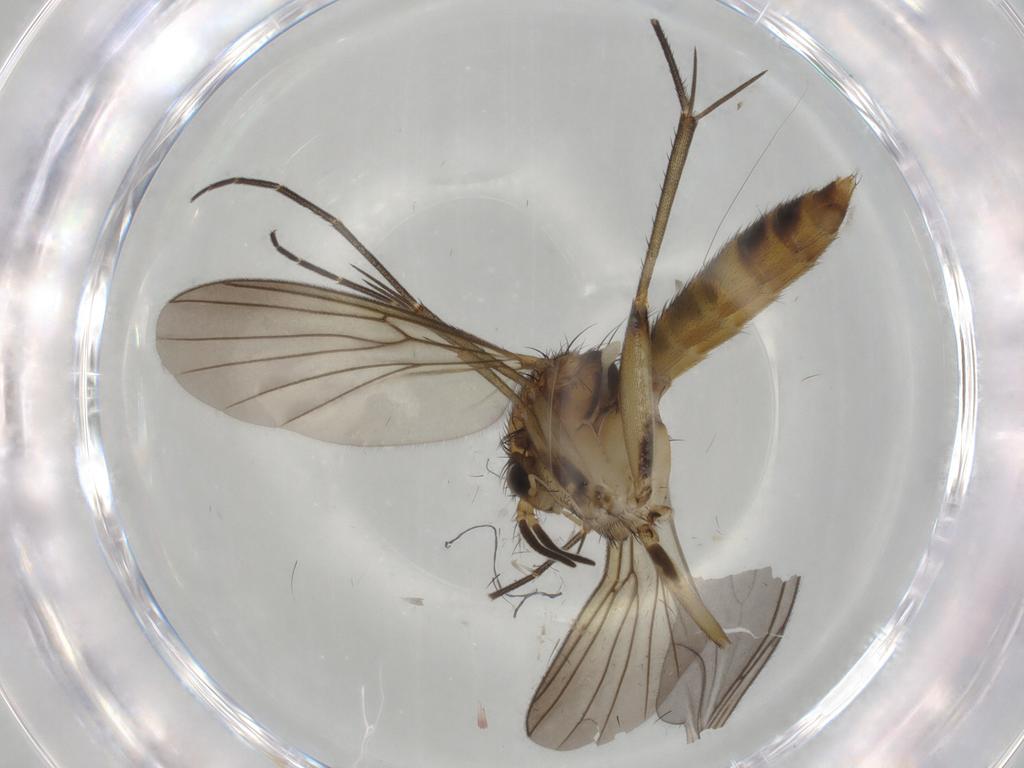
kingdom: Animalia
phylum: Arthropoda
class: Insecta
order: Diptera
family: Mycetophilidae
